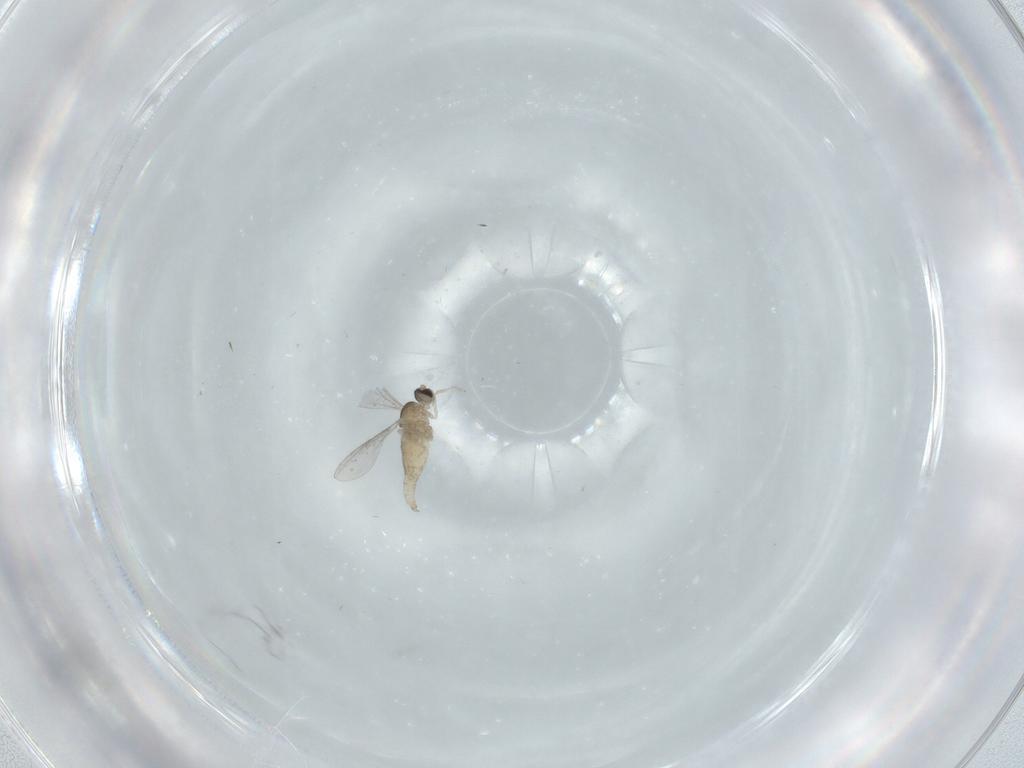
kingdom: Animalia
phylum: Arthropoda
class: Insecta
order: Diptera
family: Cecidomyiidae
